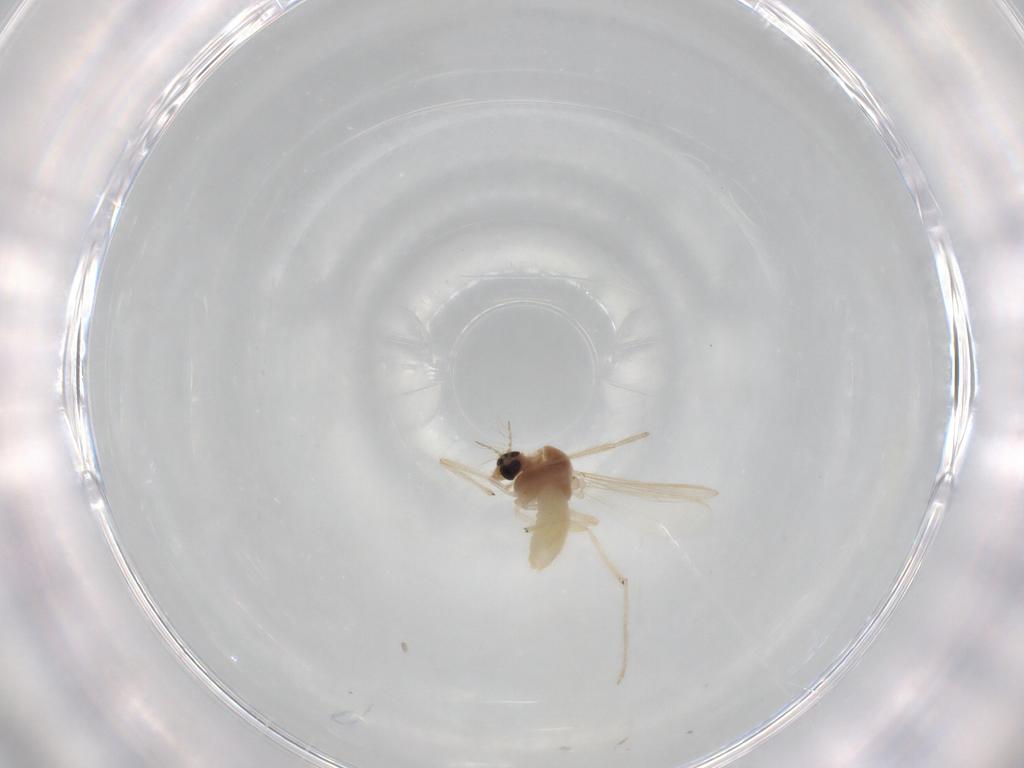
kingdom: Animalia
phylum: Arthropoda
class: Insecta
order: Diptera
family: Chironomidae
